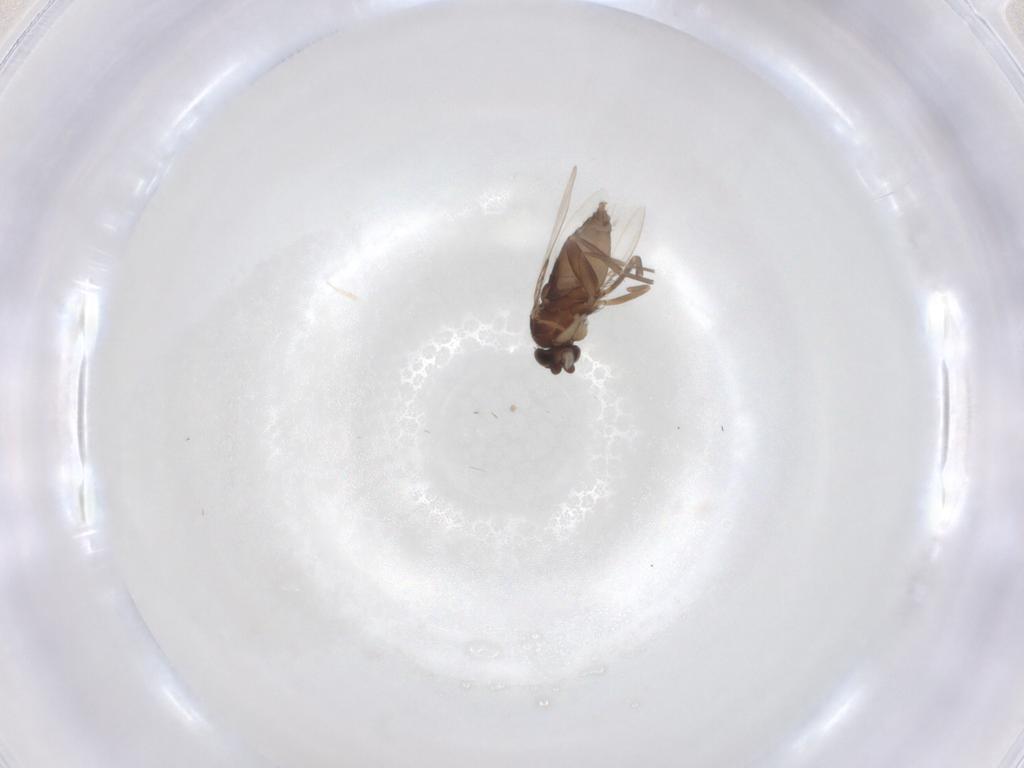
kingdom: Animalia
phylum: Arthropoda
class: Insecta
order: Diptera
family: Phoridae
